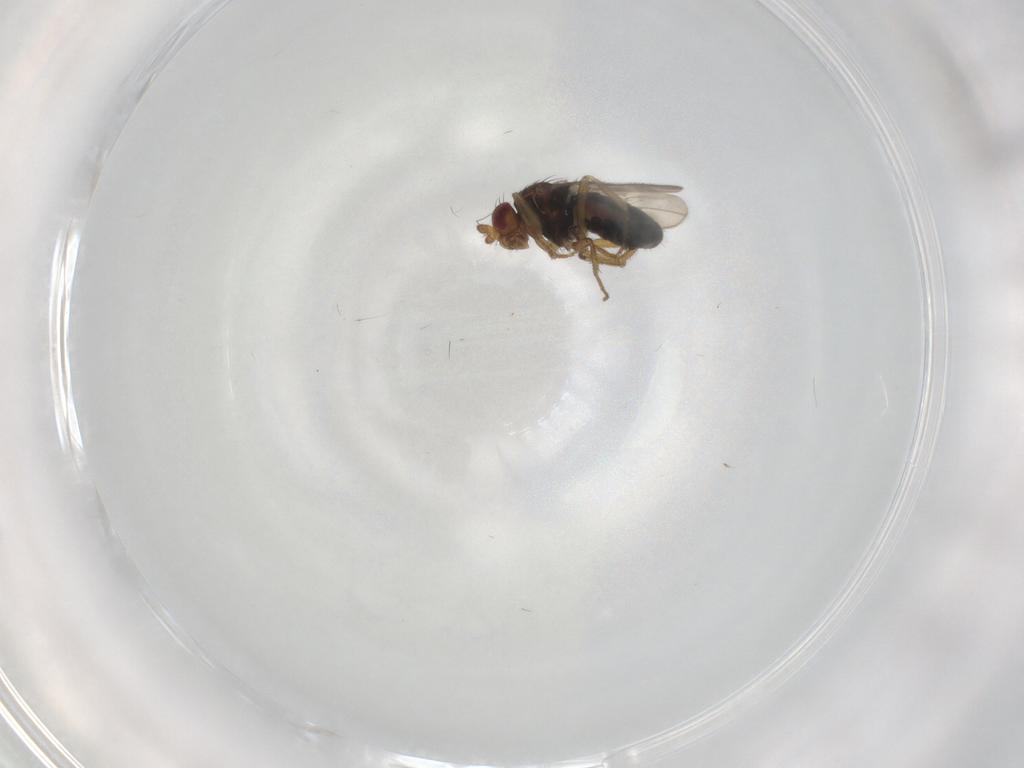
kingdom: Animalia
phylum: Arthropoda
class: Insecta
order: Diptera
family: Sphaeroceridae
